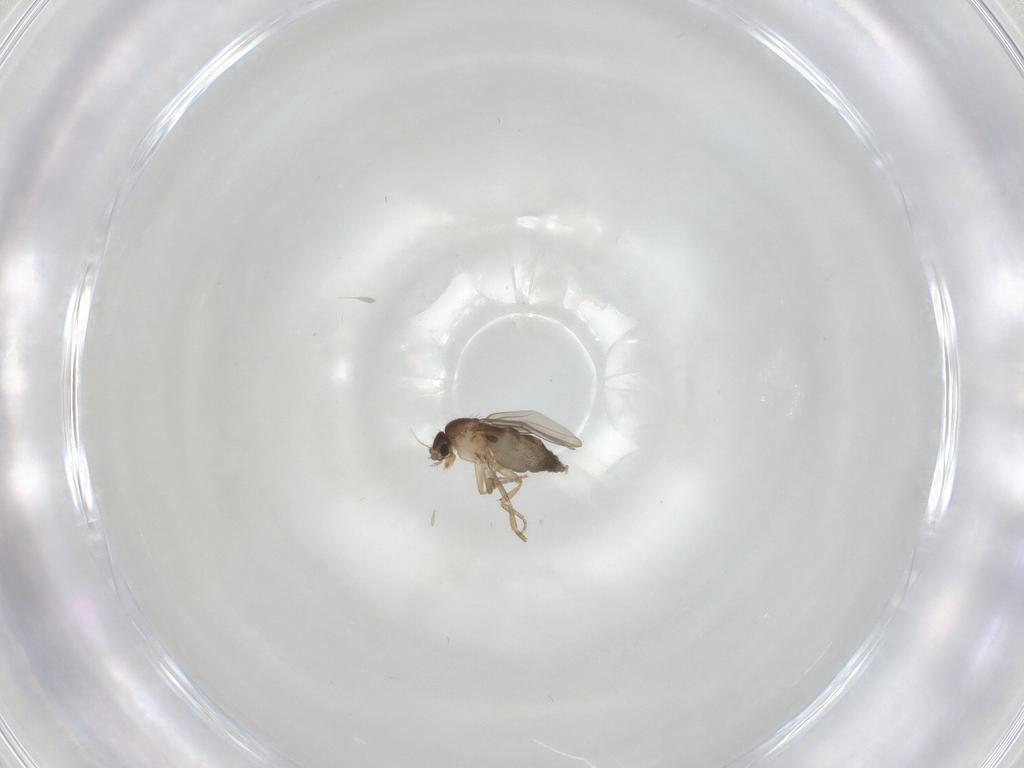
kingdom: Animalia
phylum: Arthropoda
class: Insecta
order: Diptera
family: Phoridae
